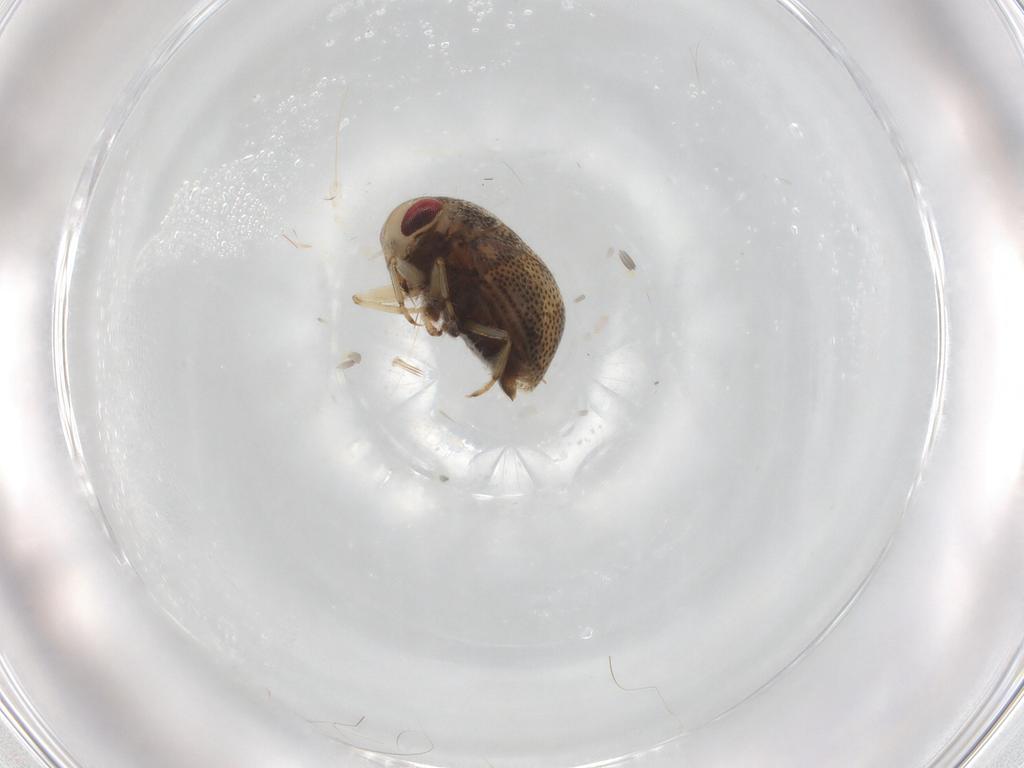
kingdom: Animalia
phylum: Arthropoda
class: Insecta
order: Hemiptera
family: Pleidae
